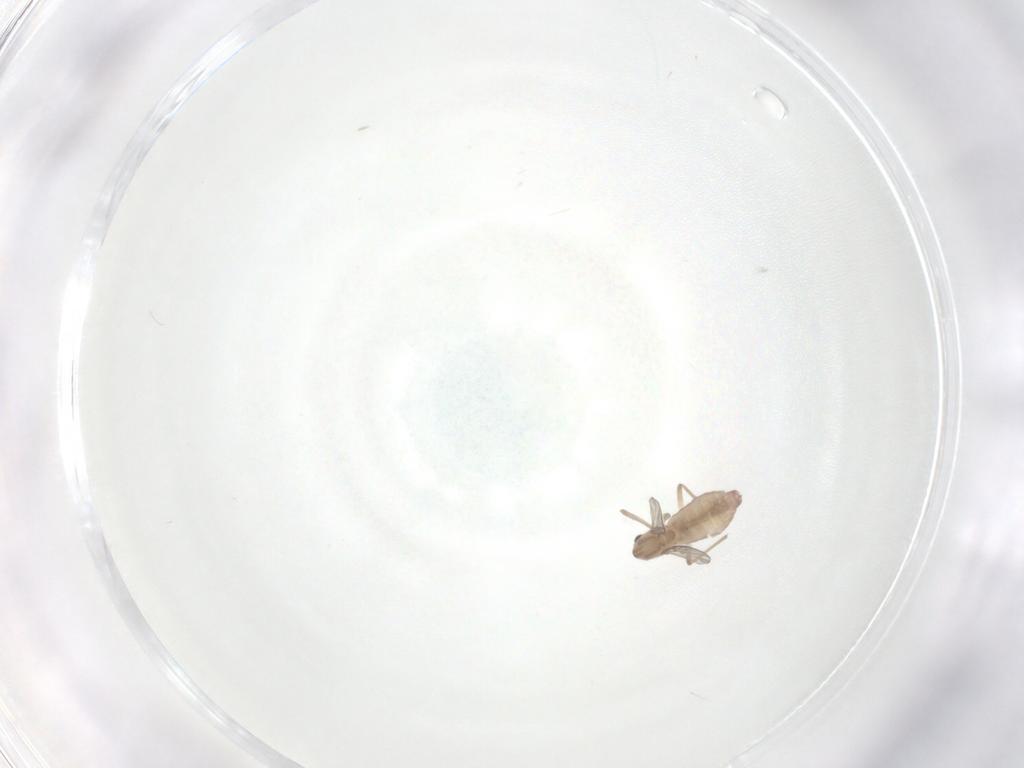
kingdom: Animalia
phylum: Arthropoda
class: Insecta
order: Diptera
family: Chironomidae
